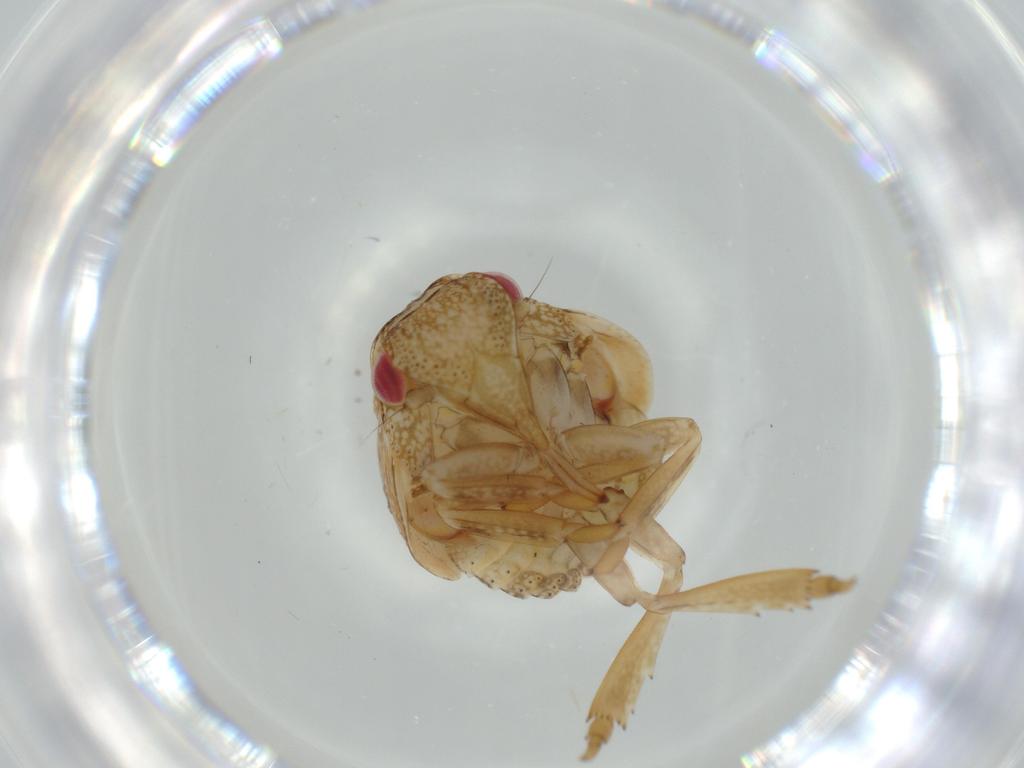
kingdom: Animalia
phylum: Arthropoda
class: Insecta
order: Hemiptera
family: Acanaloniidae
